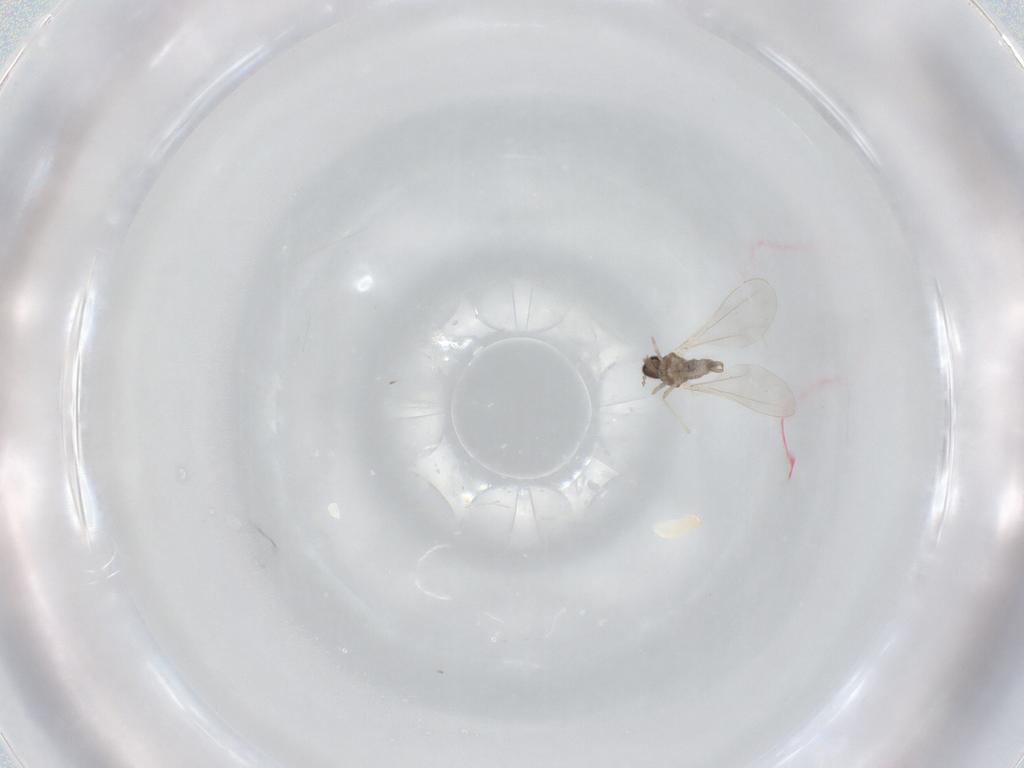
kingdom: Animalia
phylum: Arthropoda
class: Insecta
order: Diptera
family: Cecidomyiidae
